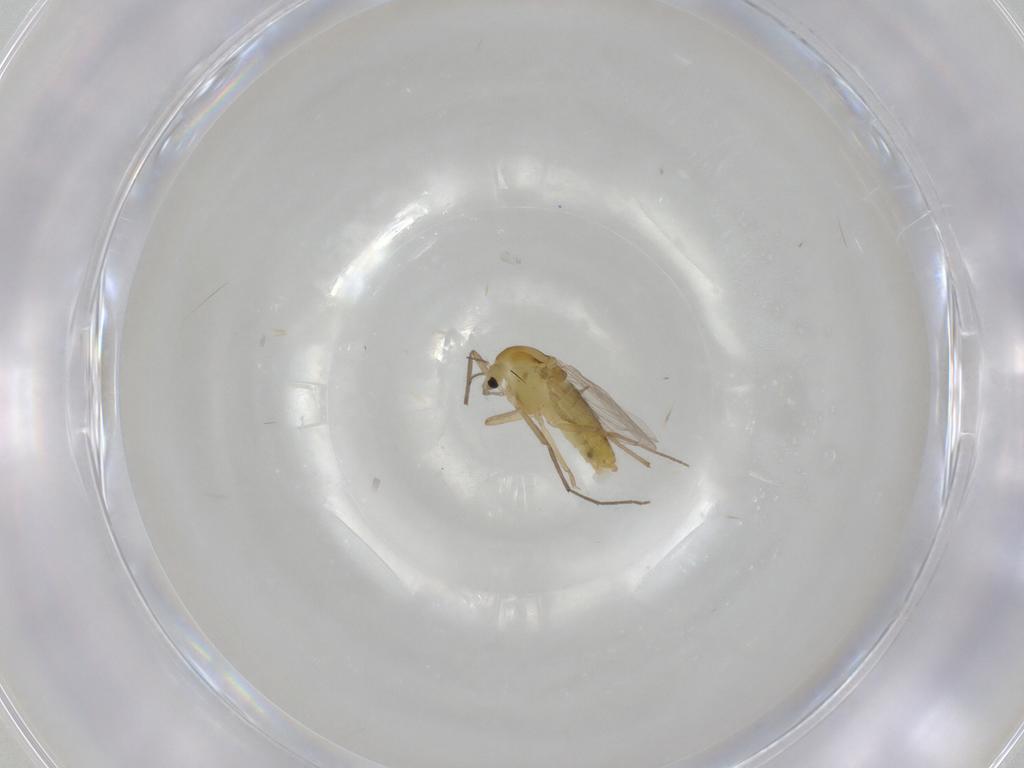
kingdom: Animalia
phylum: Arthropoda
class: Insecta
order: Diptera
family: Chironomidae
